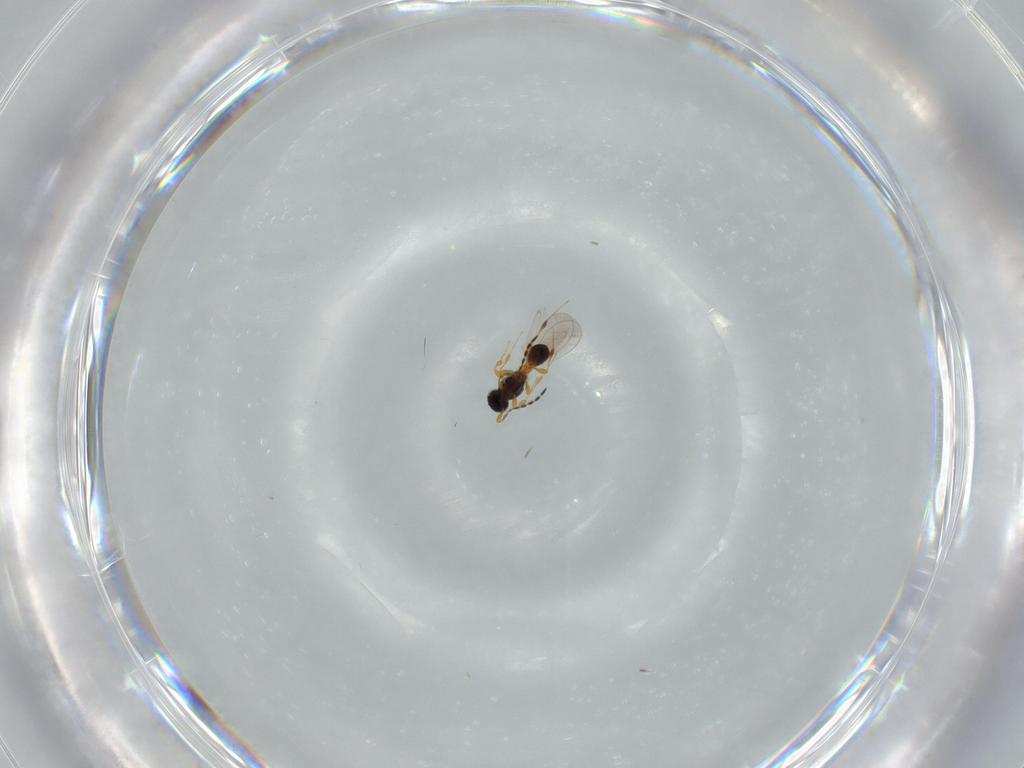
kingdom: Animalia
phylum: Arthropoda
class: Insecta
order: Hymenoptera
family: Platygastridae
